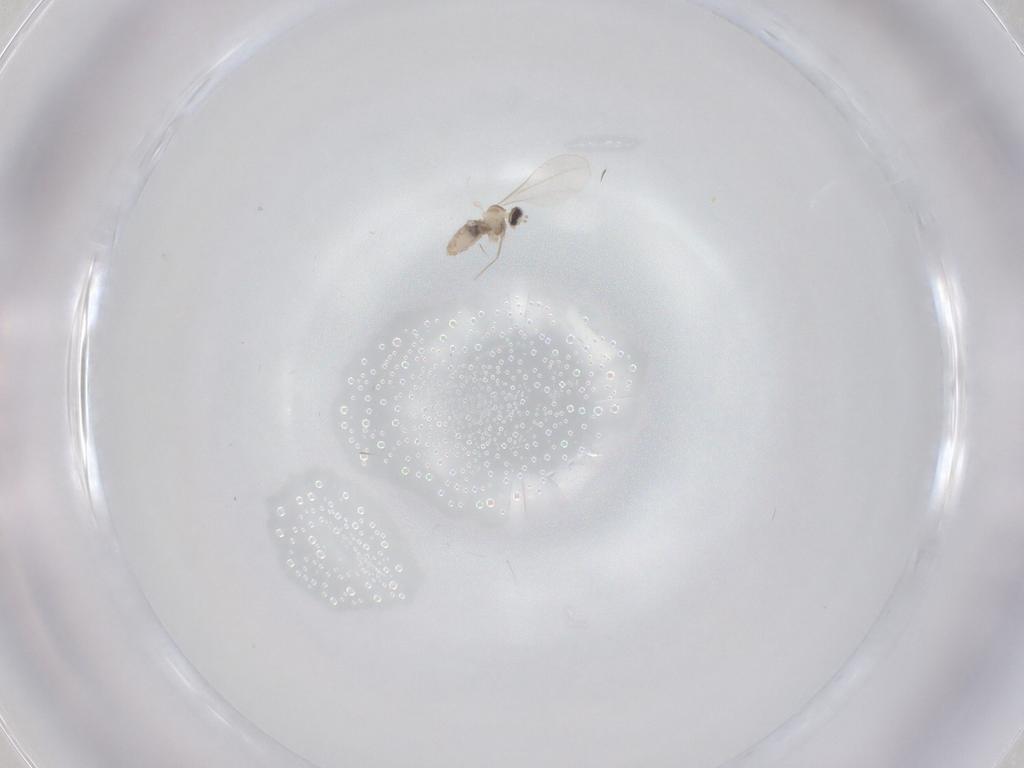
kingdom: Animalia
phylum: Arthropoda
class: Insecta
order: Diptera
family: Cecidomyiidae
